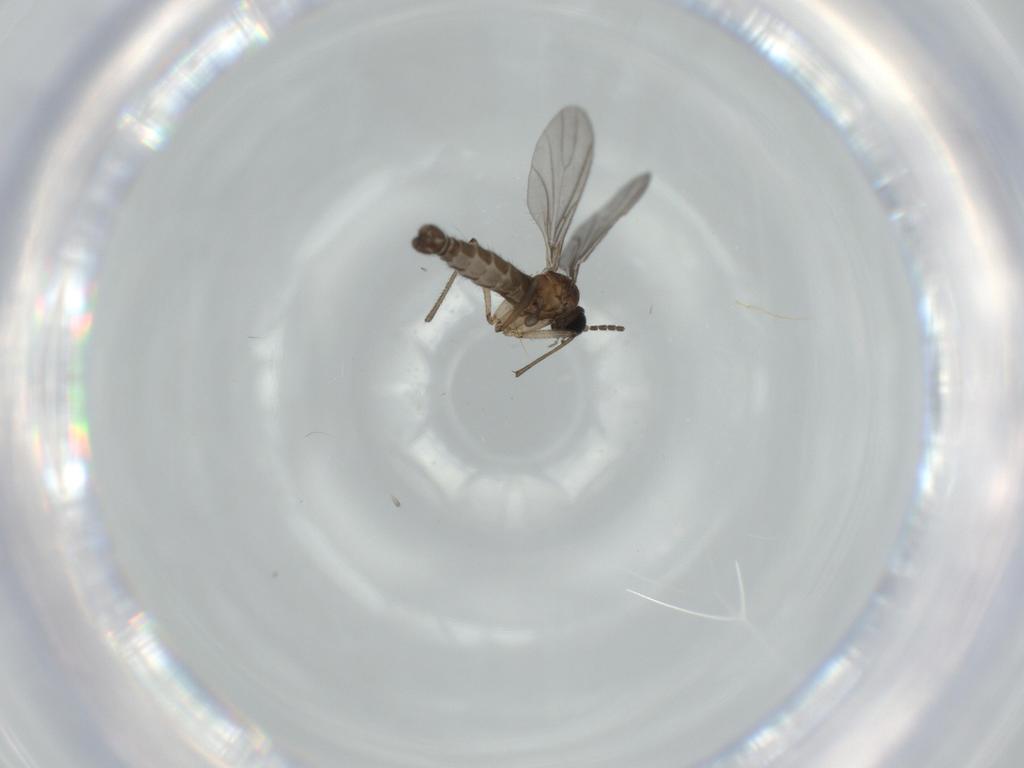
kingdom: Animalia
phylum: Arthropoda
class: Insecta
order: Diptera
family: Sciaridae
